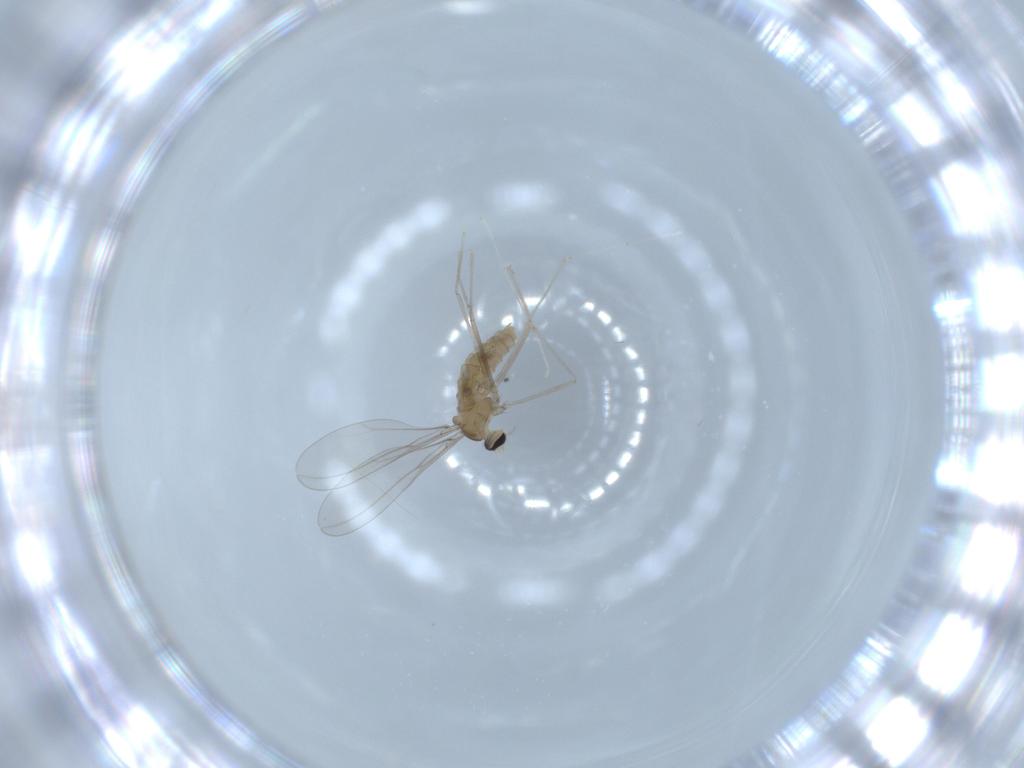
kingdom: Animalia
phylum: Arthropoda
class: Insecta
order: Diptera
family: Cecidomyiidae
